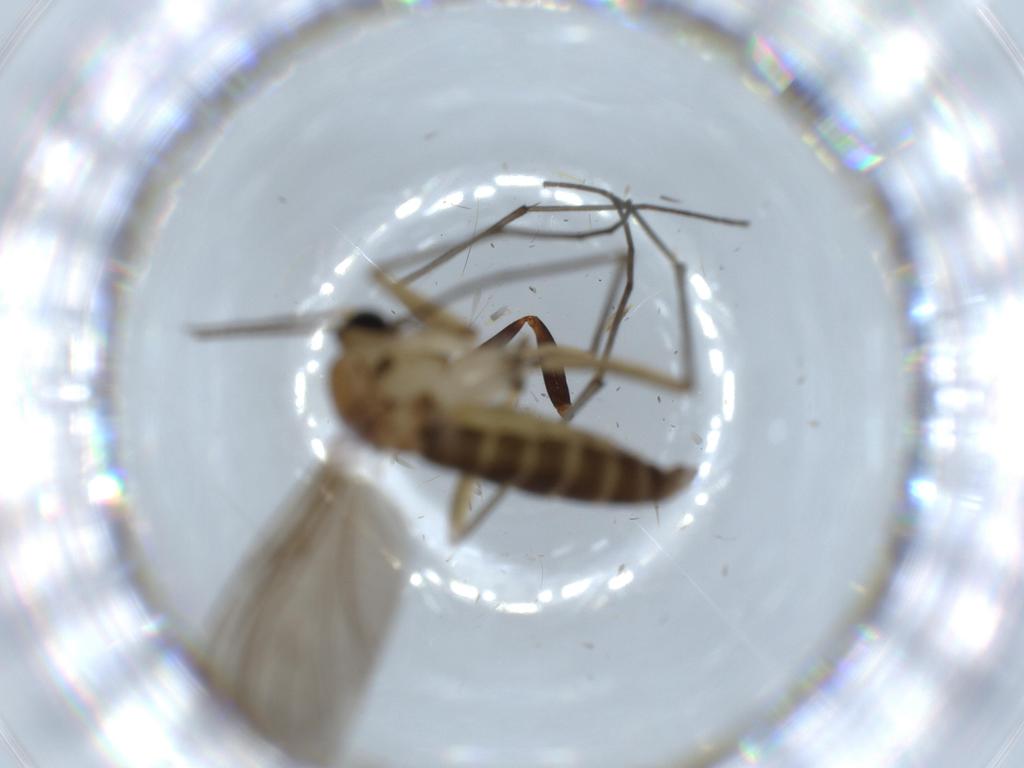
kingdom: Animalia
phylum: Arthropoda
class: Insecta
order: Diptera
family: Sciaridae
